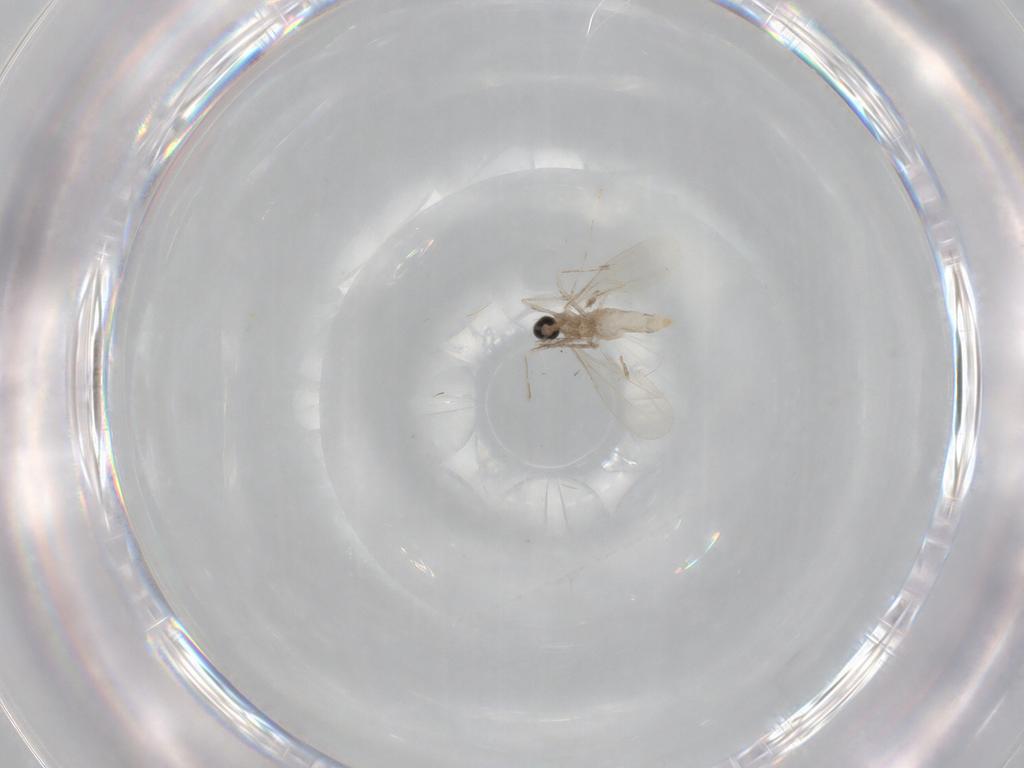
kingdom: Animalia
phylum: Arthropoda
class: Insecta
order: Diptera
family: Cecidomyiidae
